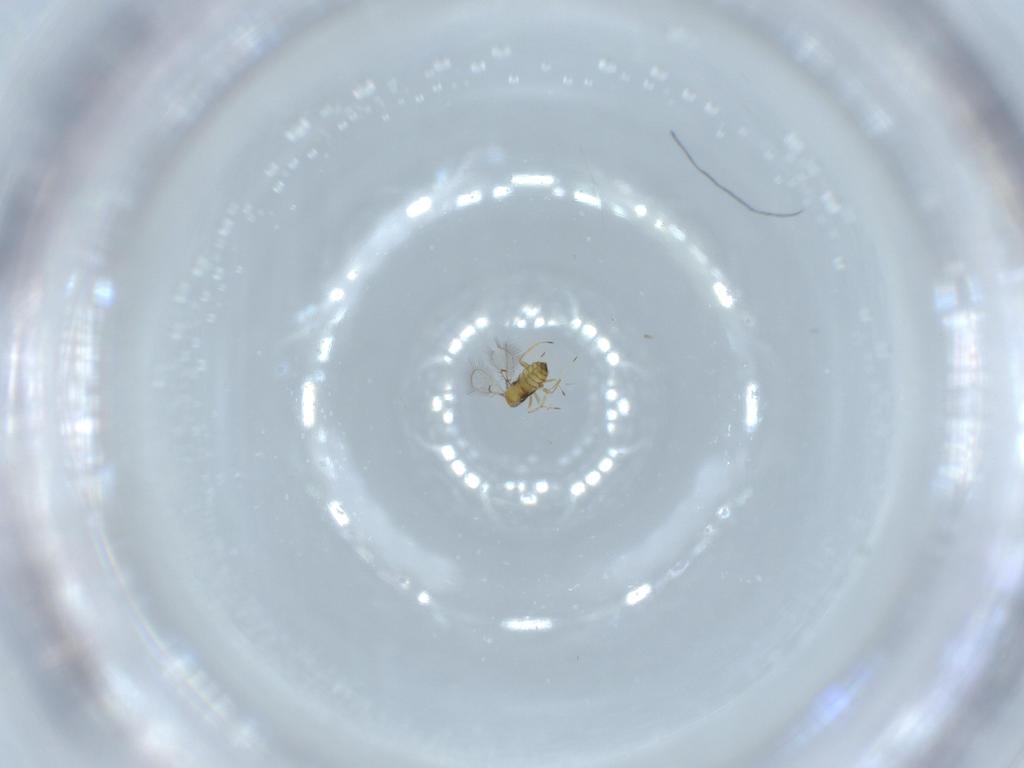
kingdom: Animalia
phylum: Arthropoda
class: Insecta
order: Hymenoptera
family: Trichogrammatidae
